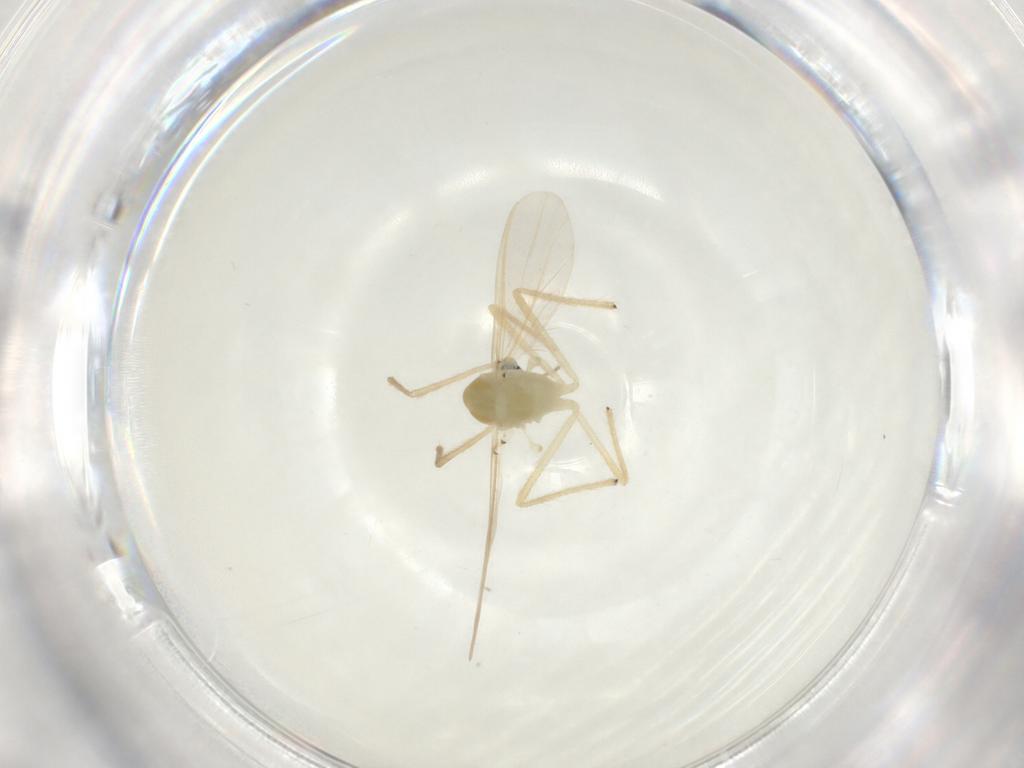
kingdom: Animalia
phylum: Arthropoda
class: Insecta
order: Diptera
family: Chironomidae
